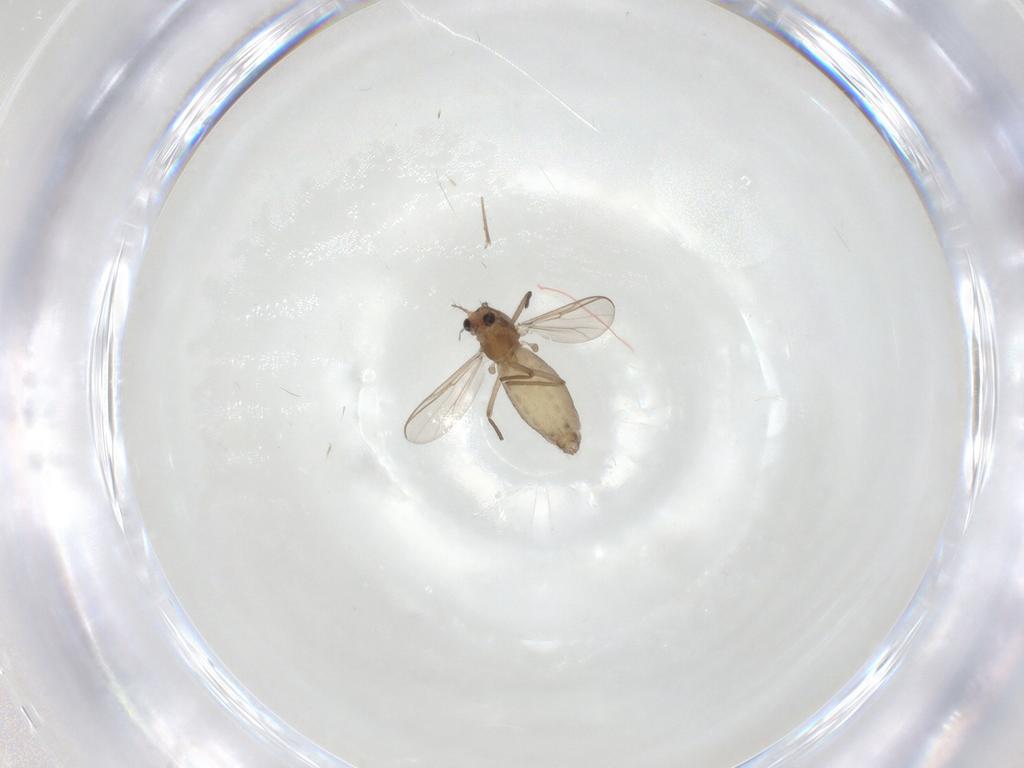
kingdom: Animalia
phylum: Arthropoda
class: Insecta
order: Diptera
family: Chironomidae
